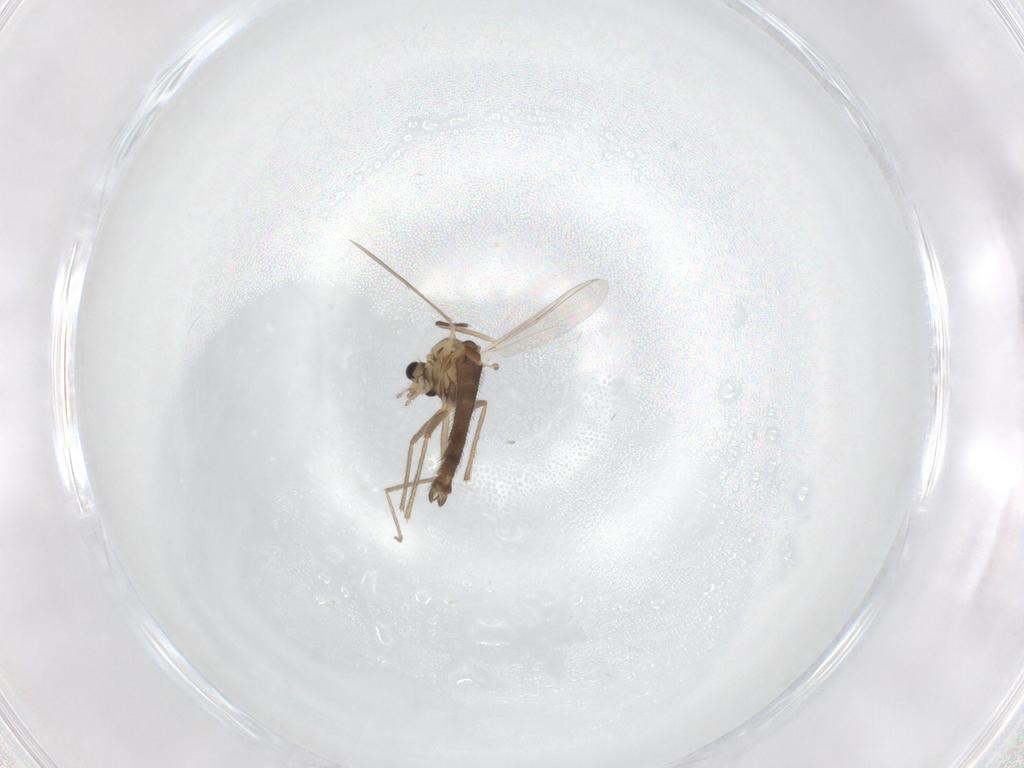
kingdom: Animalia
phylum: Arthropoda
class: Insecta
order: Diptera
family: Chironomidae
